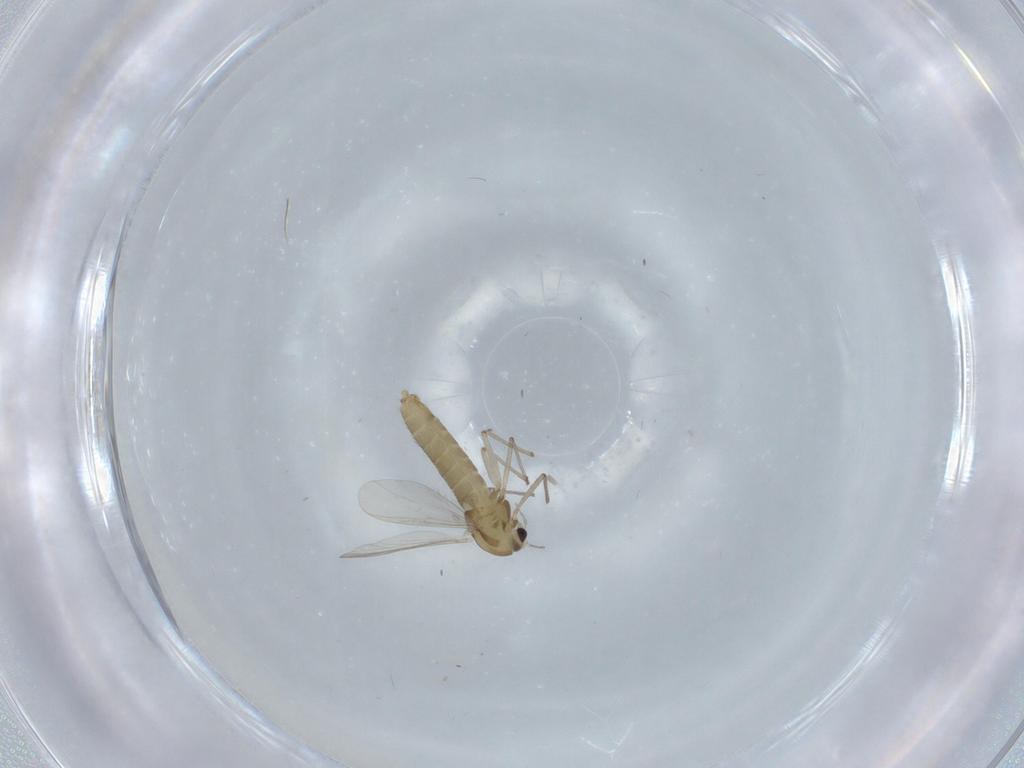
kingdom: Animalia
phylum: Arthropoda
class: Insecta
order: Diptera
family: Chironomidae
